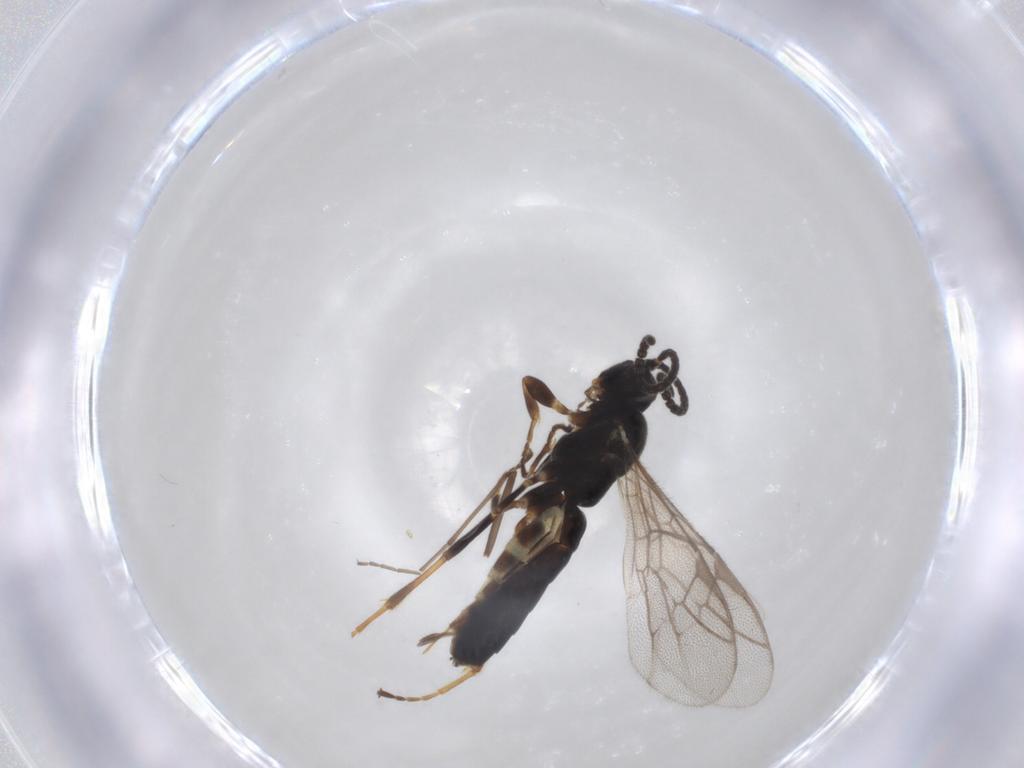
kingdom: Animalia
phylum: Arthropoda
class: Insecta
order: Hymenoptera
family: Ichneumonidae
